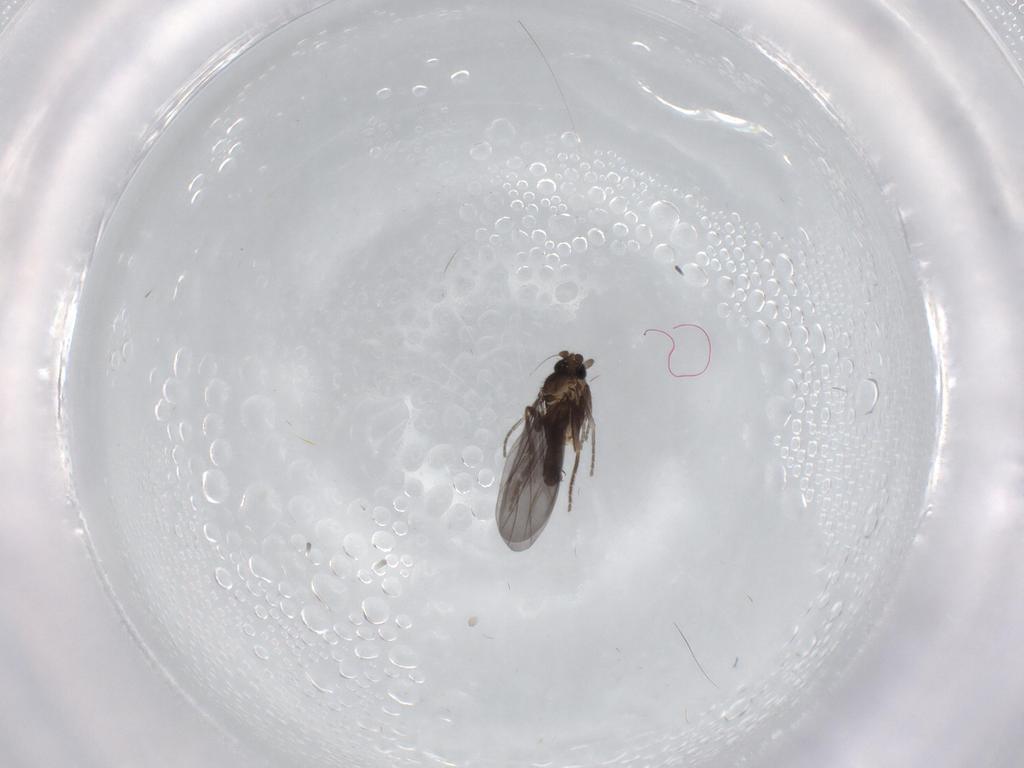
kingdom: Animalia
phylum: Arthropoda
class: Insecta
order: Diptera
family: Phoridae
